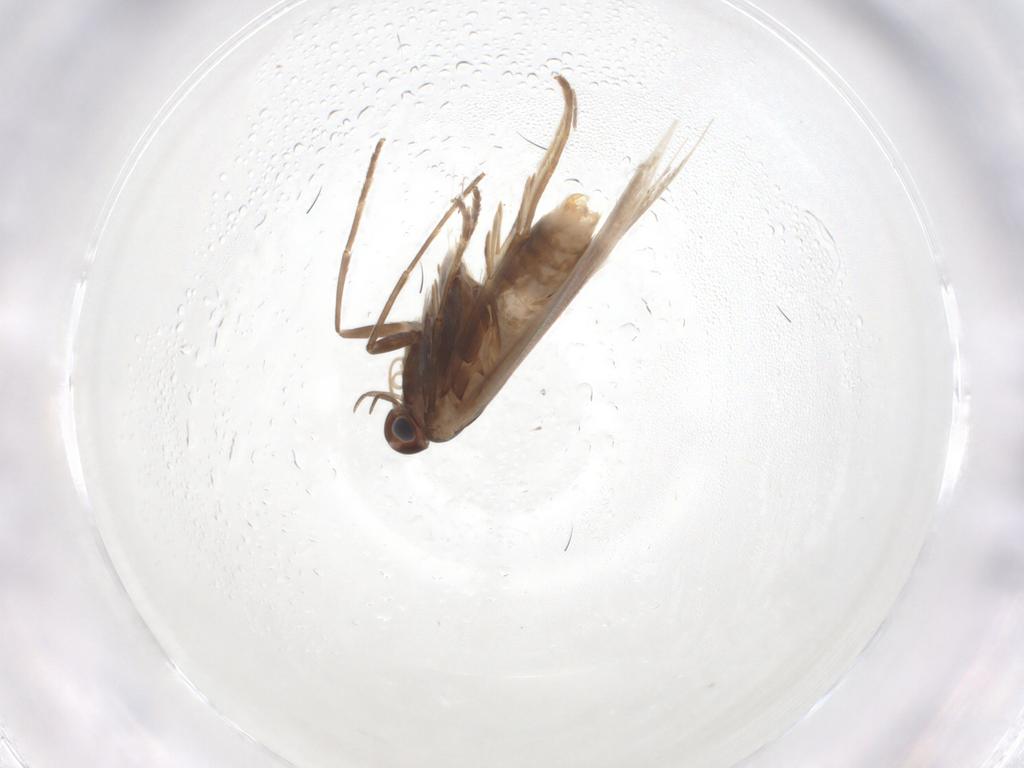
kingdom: Animalia
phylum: Arthropoda
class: Insecta
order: Lepidoptera
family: Coleophoridae
